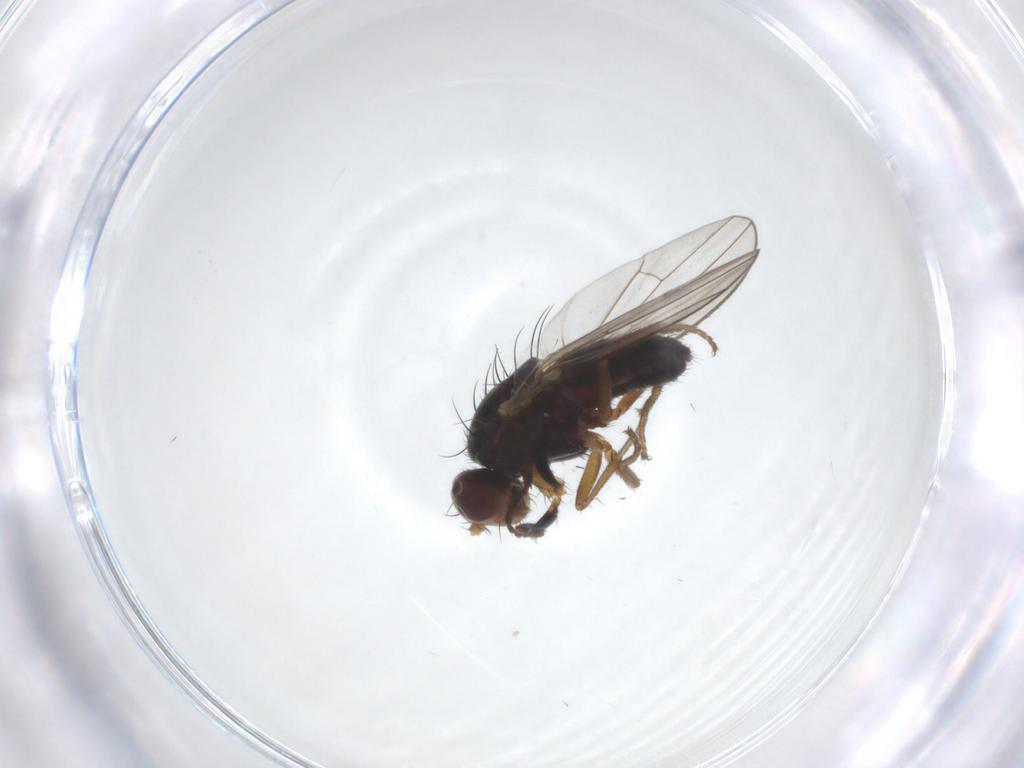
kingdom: Animalia
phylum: Arthropoda
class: Insecta
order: Diptera
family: Heleomyzidae
